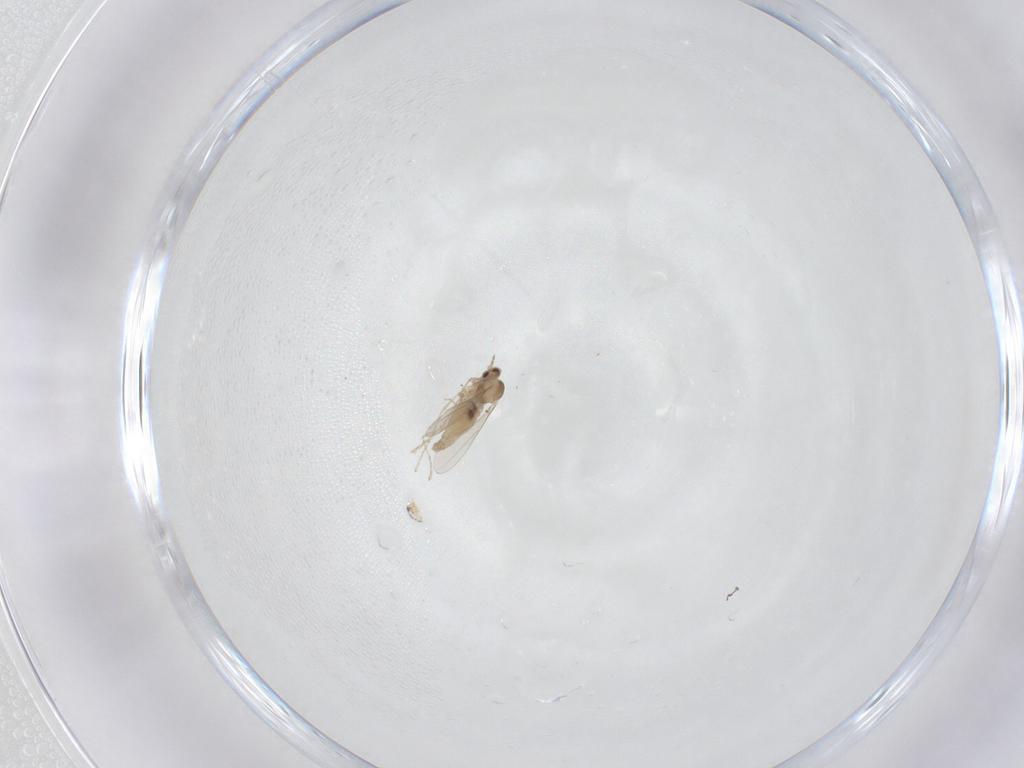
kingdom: Animalia
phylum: Arthropoda
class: Insecta
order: Diptera
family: Cecidomyiidae
